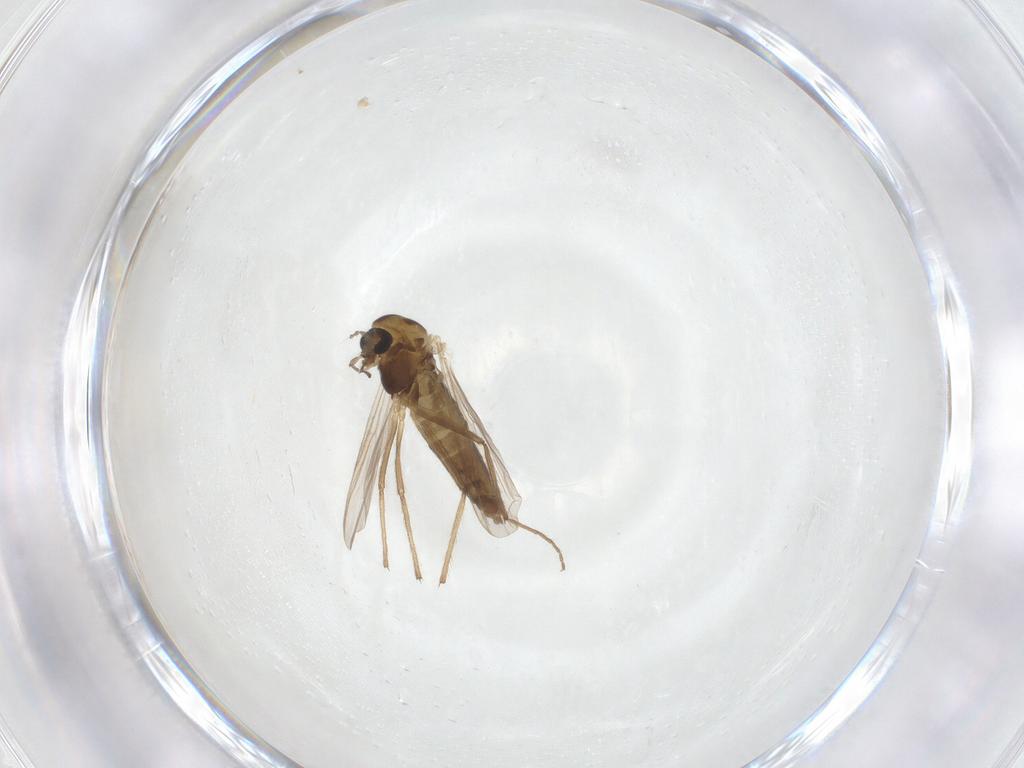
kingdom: Animalia
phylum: Arthropoda
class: Insecta
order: Diptera
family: Chironomidae
